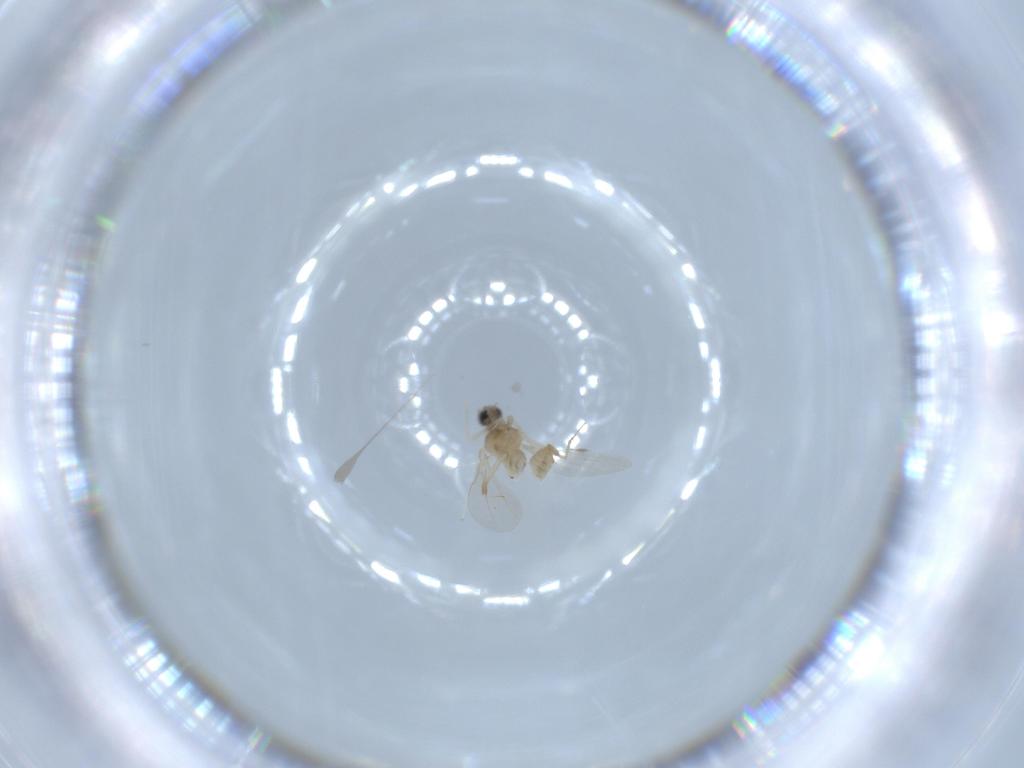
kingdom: Animalia
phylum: Arthropoda
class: Insecta
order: Diptera
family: Cecidomyiidae
